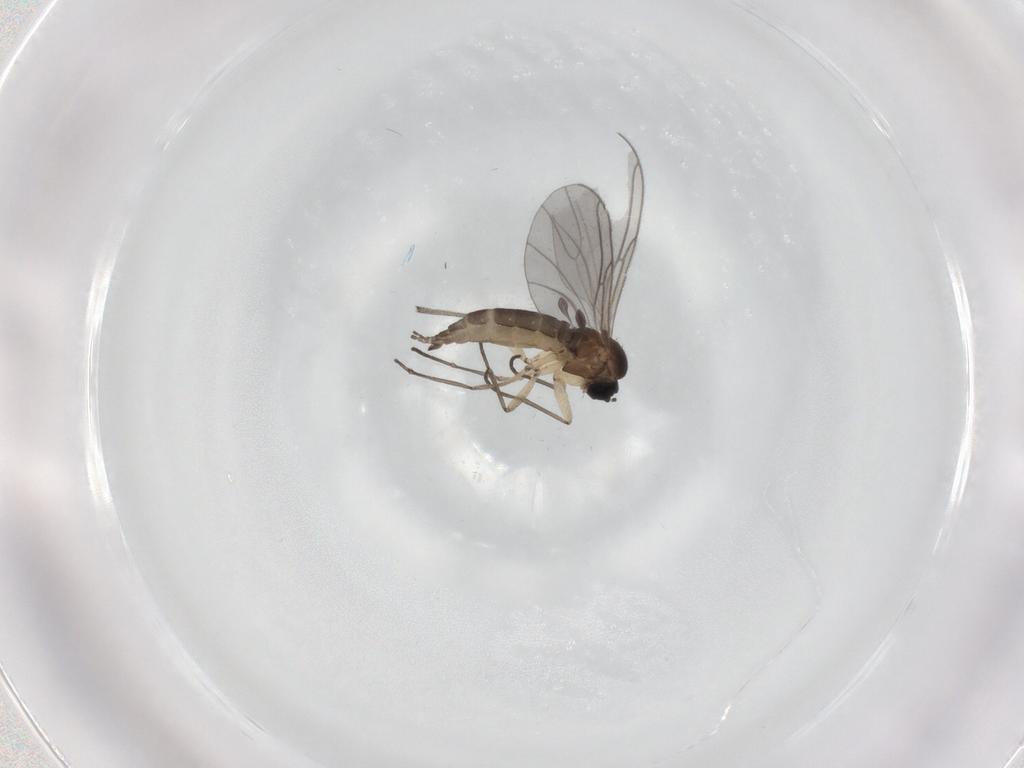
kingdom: Animalia
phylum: Arthropoda
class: Insecta
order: Diptera
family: Sciaridae
